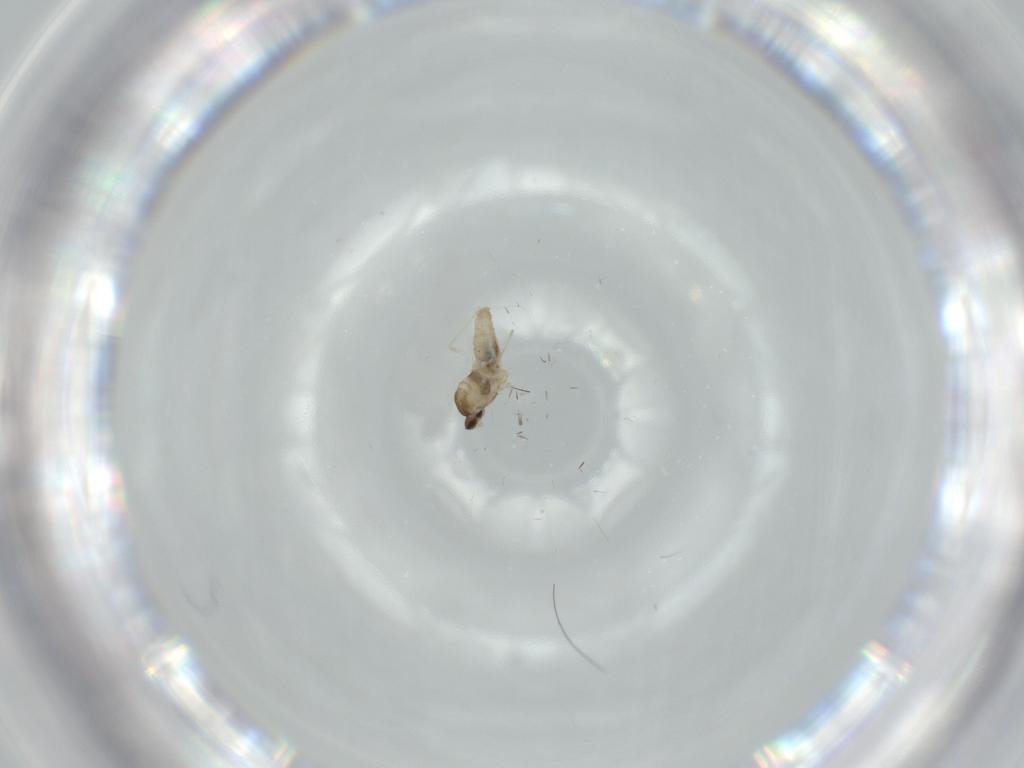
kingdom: Animalia
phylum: Arthropoda
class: Insecta
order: Diptera
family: Cecidomyiidae
